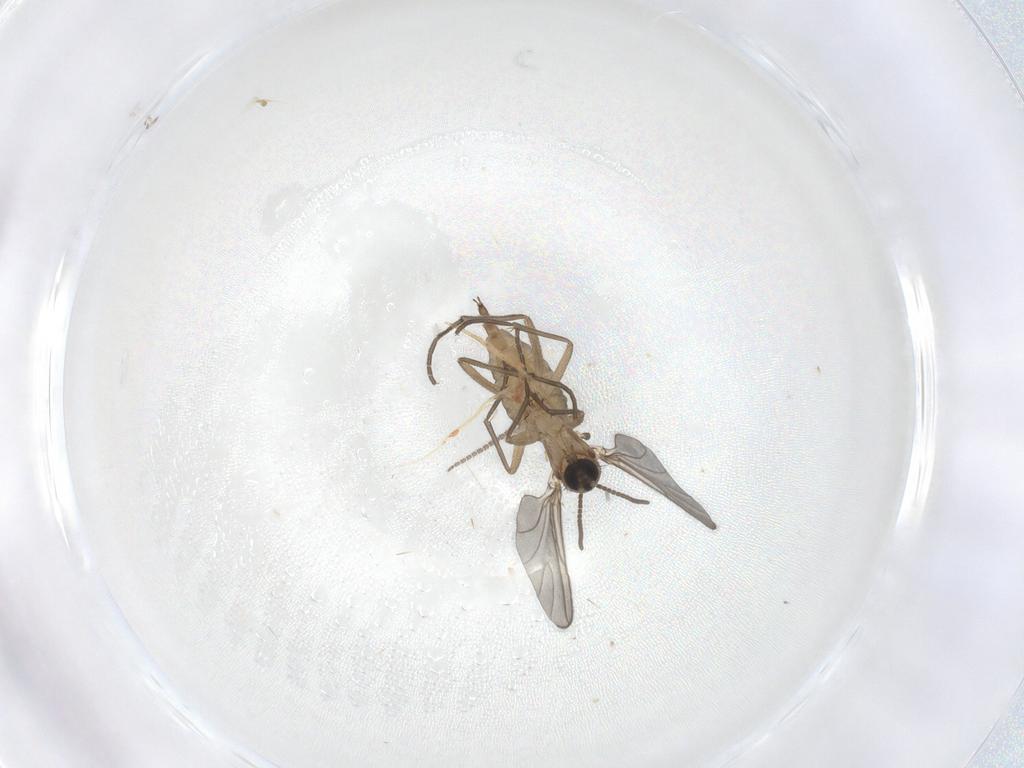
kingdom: Animalia
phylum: Arthropoda
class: Insecta
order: Diptera
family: Sciaridae
